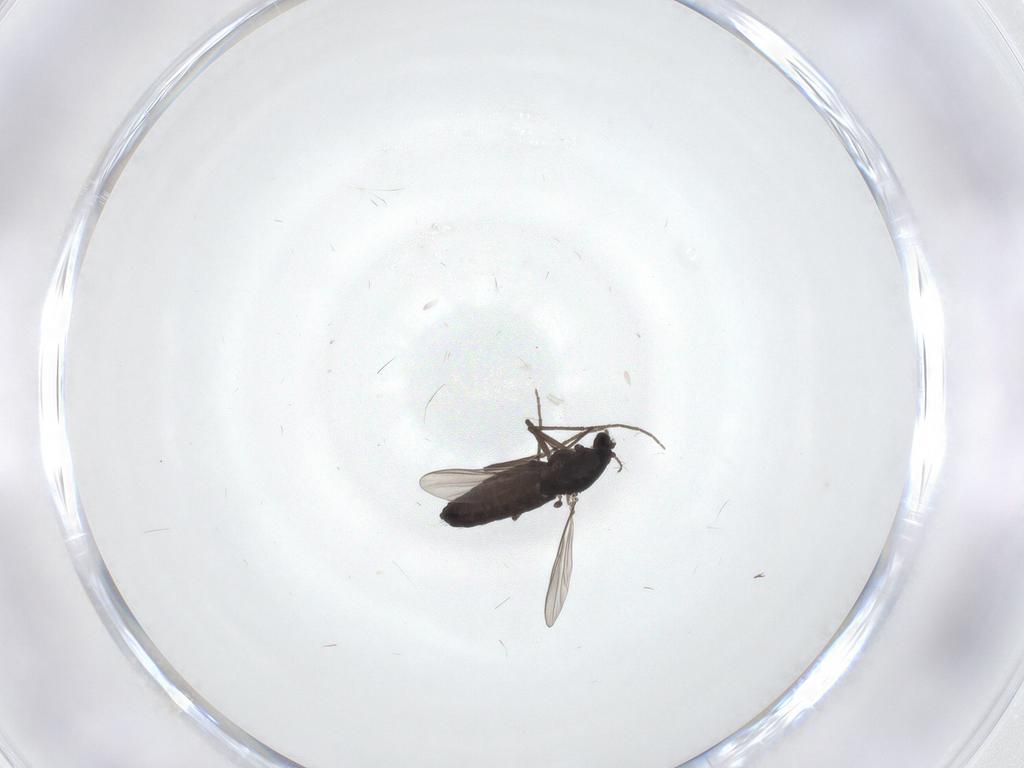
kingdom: Animalia
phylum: Arthropoda
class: Insecta
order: Diptera
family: Chironomidae
